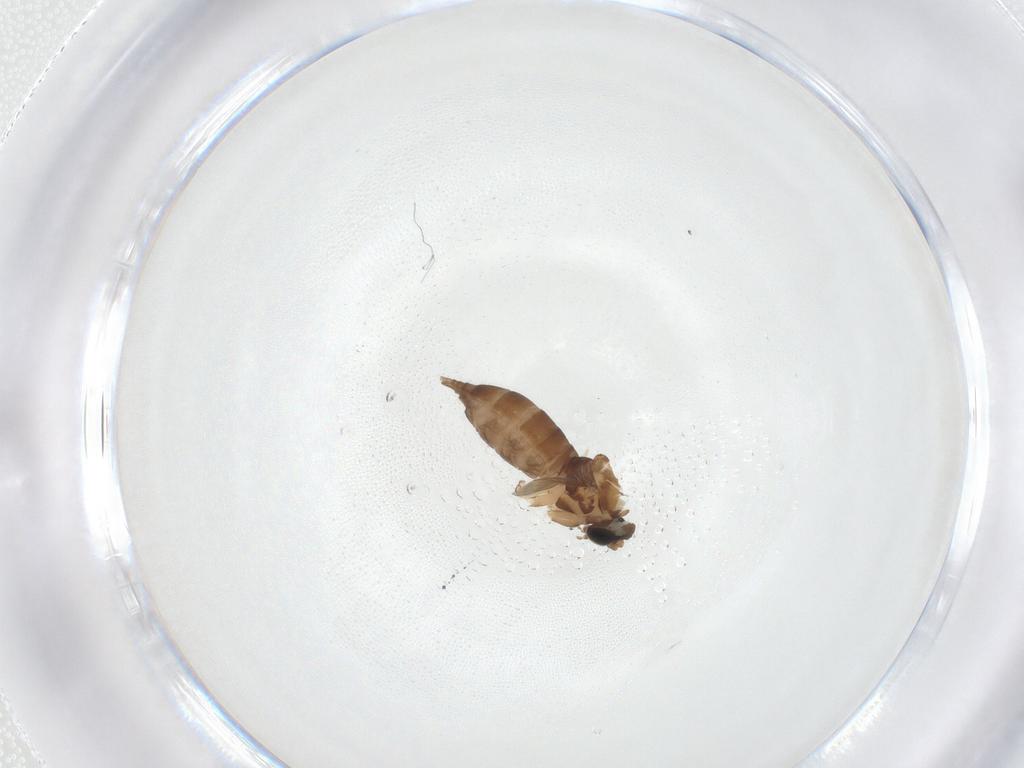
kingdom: Animalia
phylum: Arthropoda
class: Insecta
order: Diptera
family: Sciaridae
